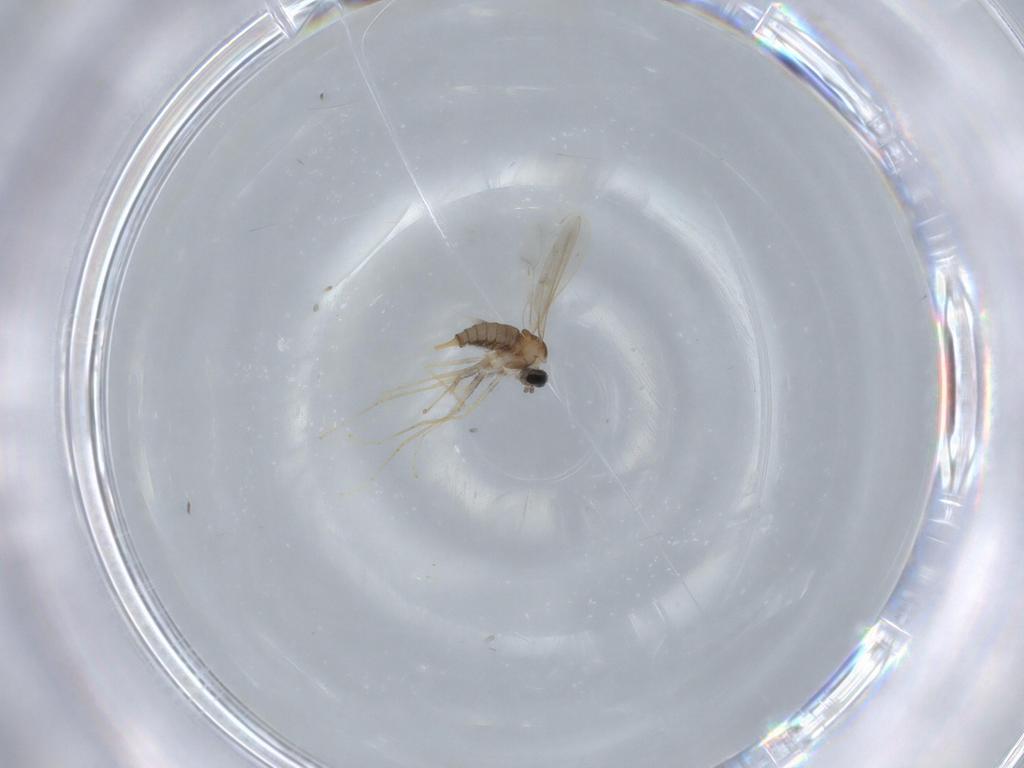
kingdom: Animalia
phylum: Arthropoda
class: Insecta
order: Diptera
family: Cecidomyiidae
